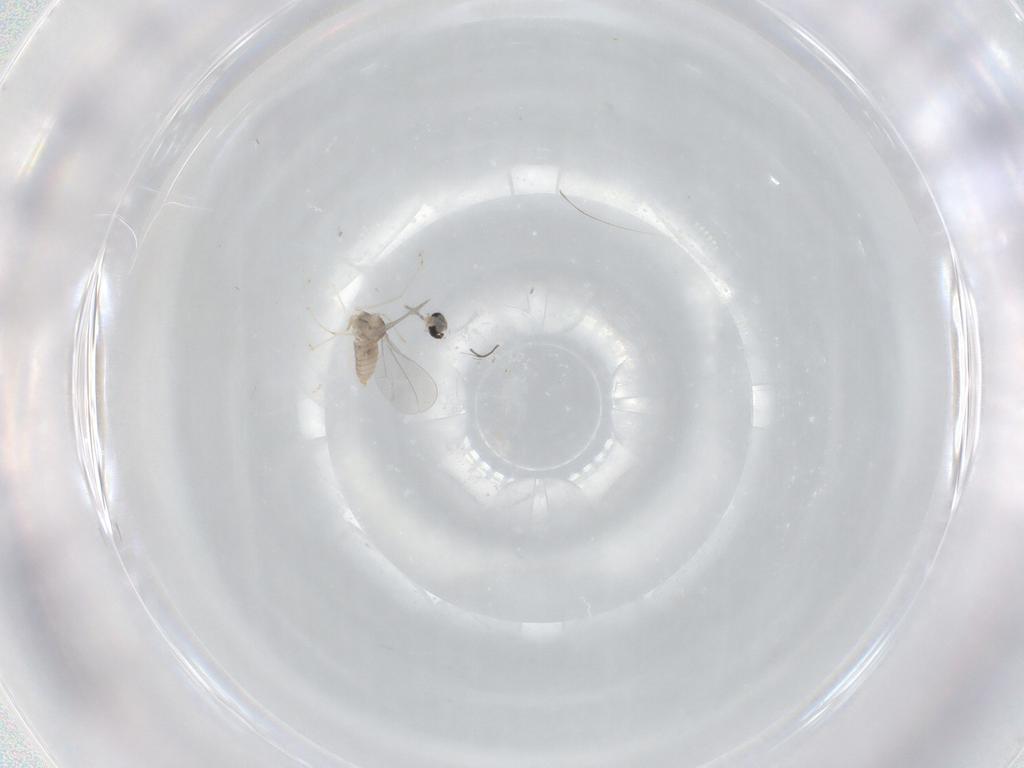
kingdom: Animalia
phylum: Arthropoda
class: Insecta
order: Diptera
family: Cecidomyiidae
